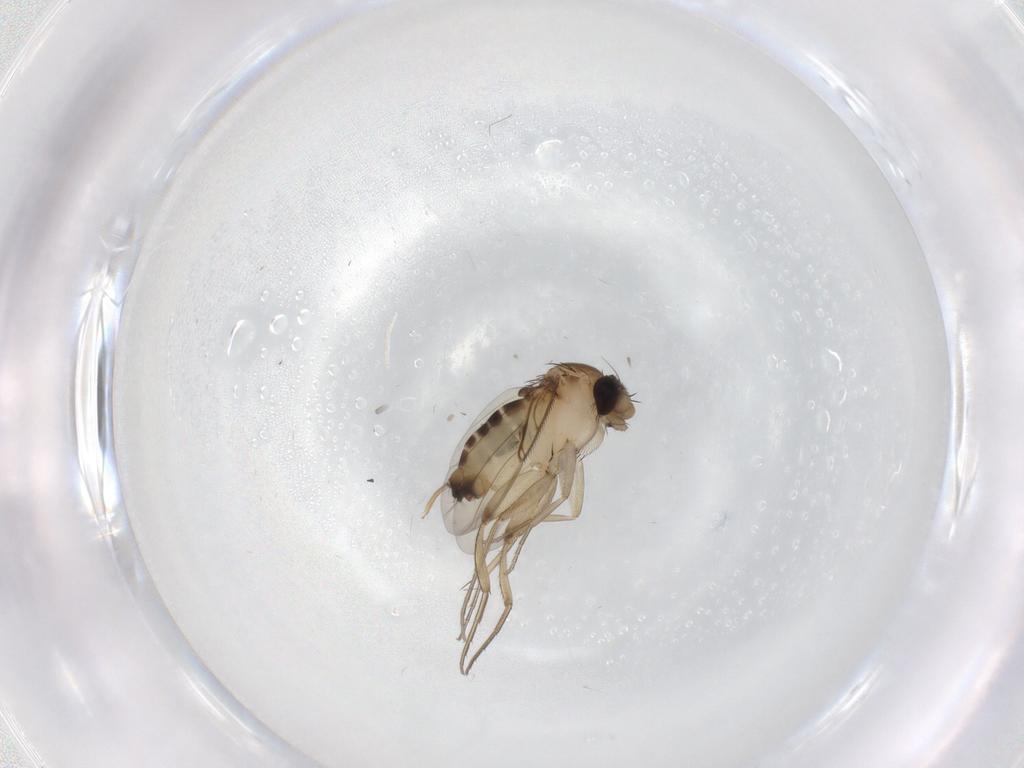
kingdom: Animalia
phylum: Arthropoda
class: Insecta
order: Diptera
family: Chironomidae
